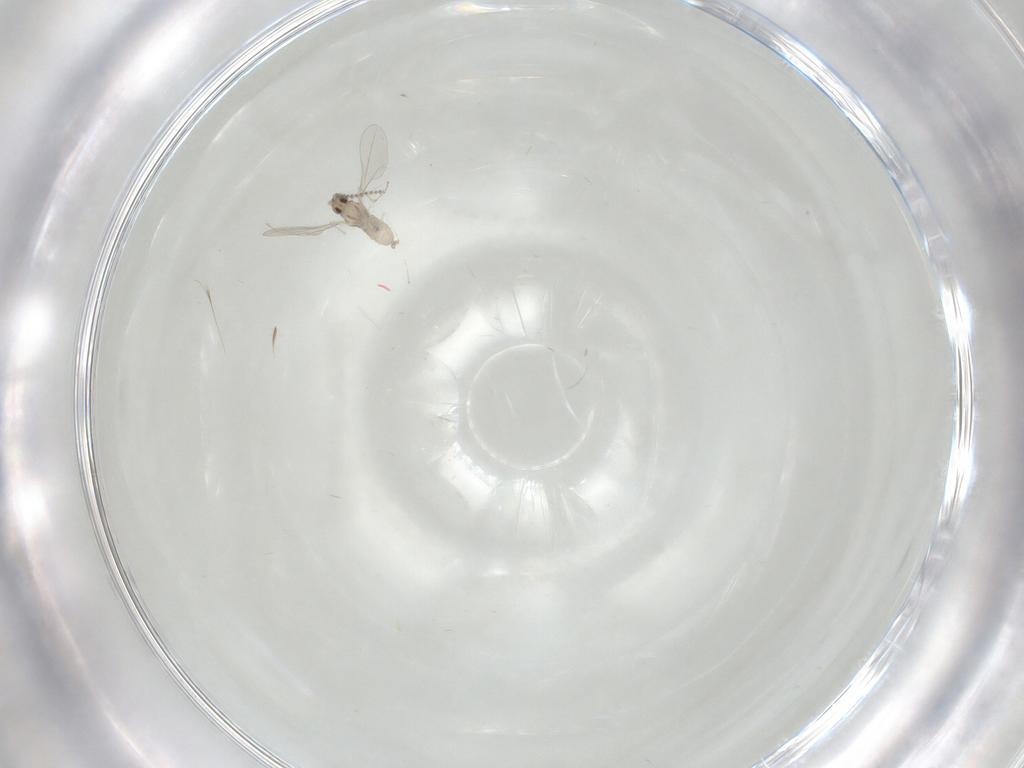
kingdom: Animalia
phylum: Arthropoda
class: Insecta
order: Diptera
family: Cecidomyiidae
